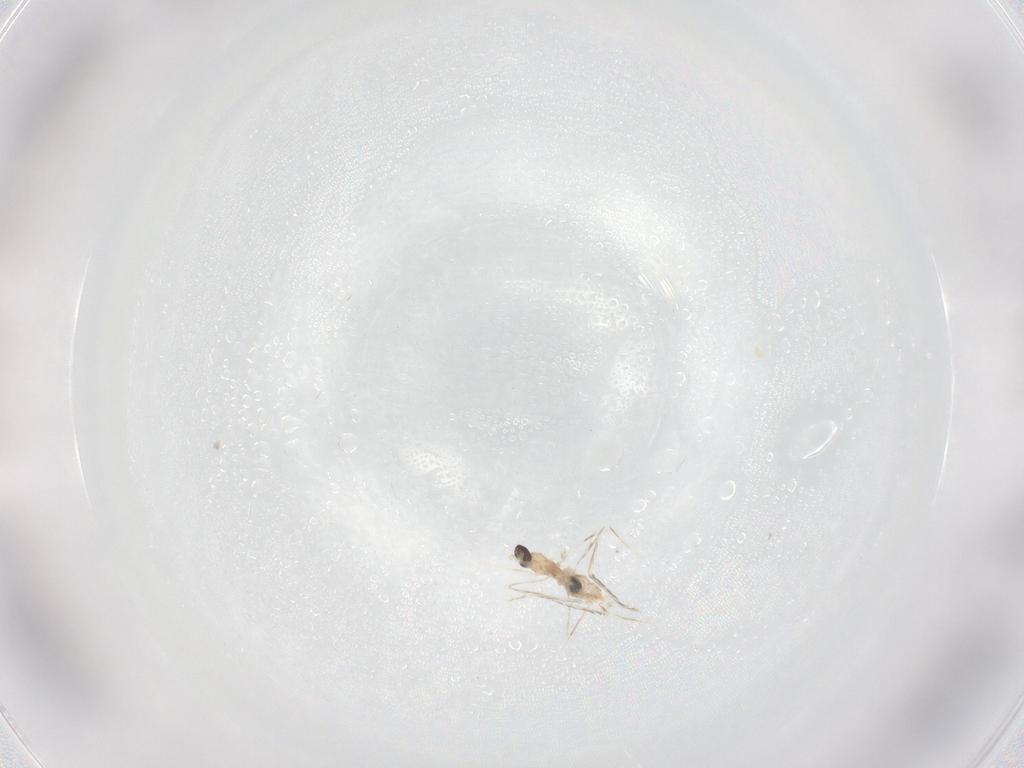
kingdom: Animalia
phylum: Arthropoda
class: Insecta
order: Diptera
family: Cecidomyiidae
